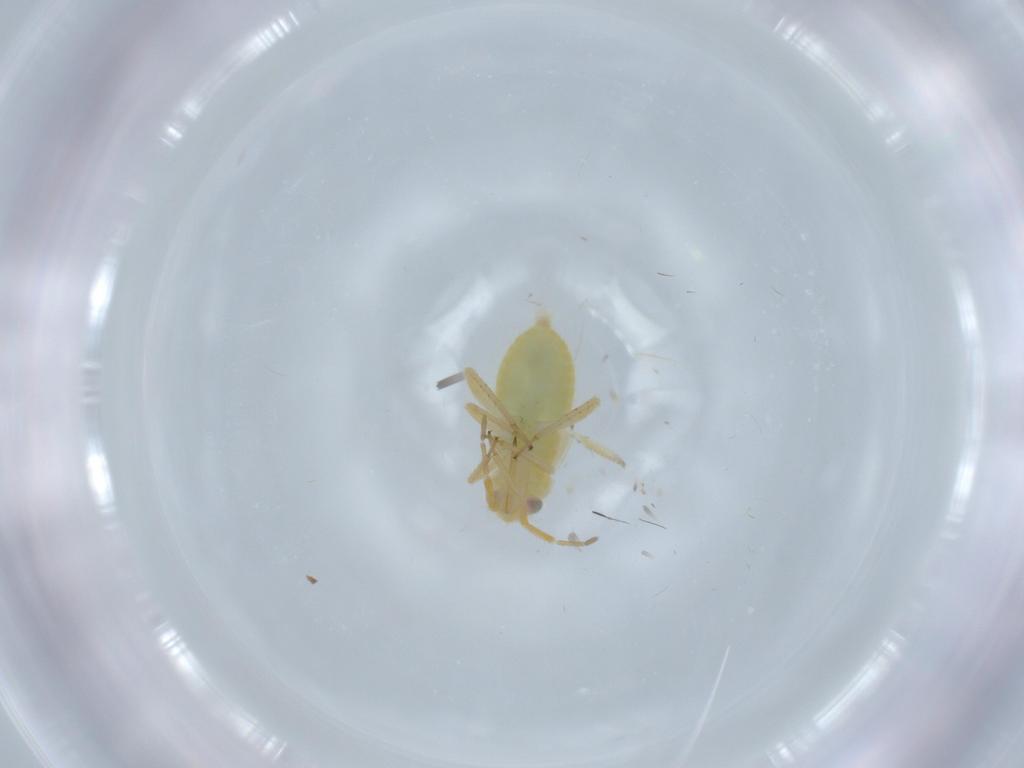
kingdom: Animalia
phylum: Arthropoda
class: Insecta
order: Hemiptera
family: Miridae
